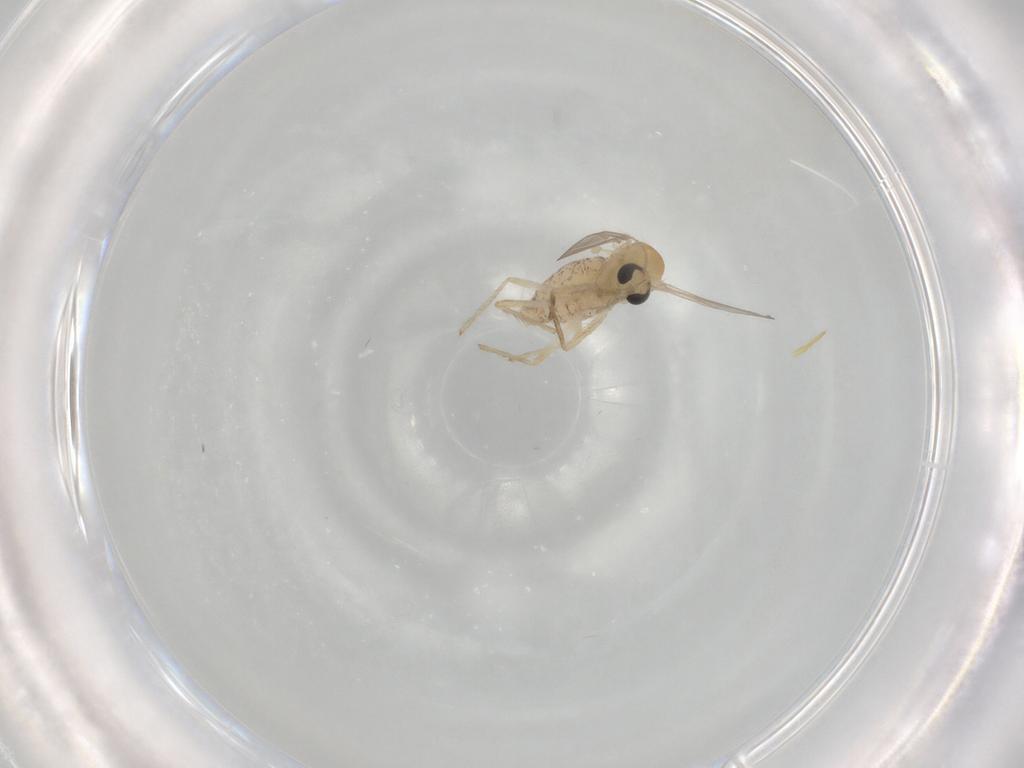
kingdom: Animalia
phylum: Arthropoda
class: Insecta
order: Diptera
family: Chironomidae
